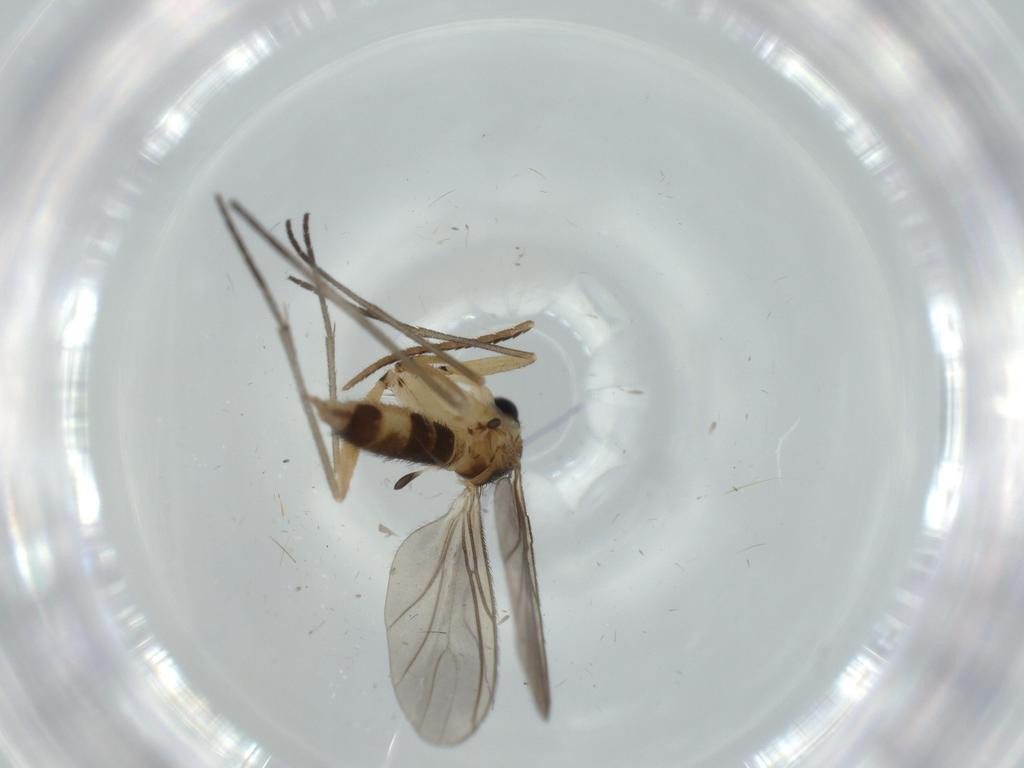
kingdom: Animalia
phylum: Arthropoda
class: Insecta
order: Diptera
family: Sciaridae
